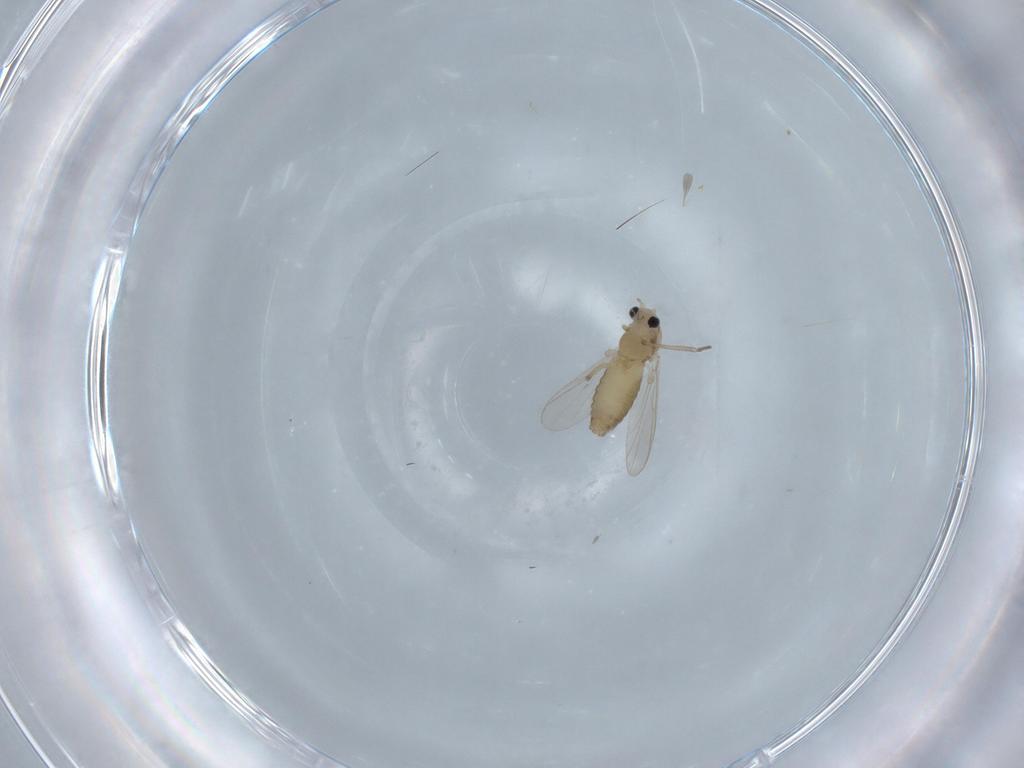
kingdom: Animalia
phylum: Arthropoda
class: Insecta
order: Diptera
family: Chironomidae
